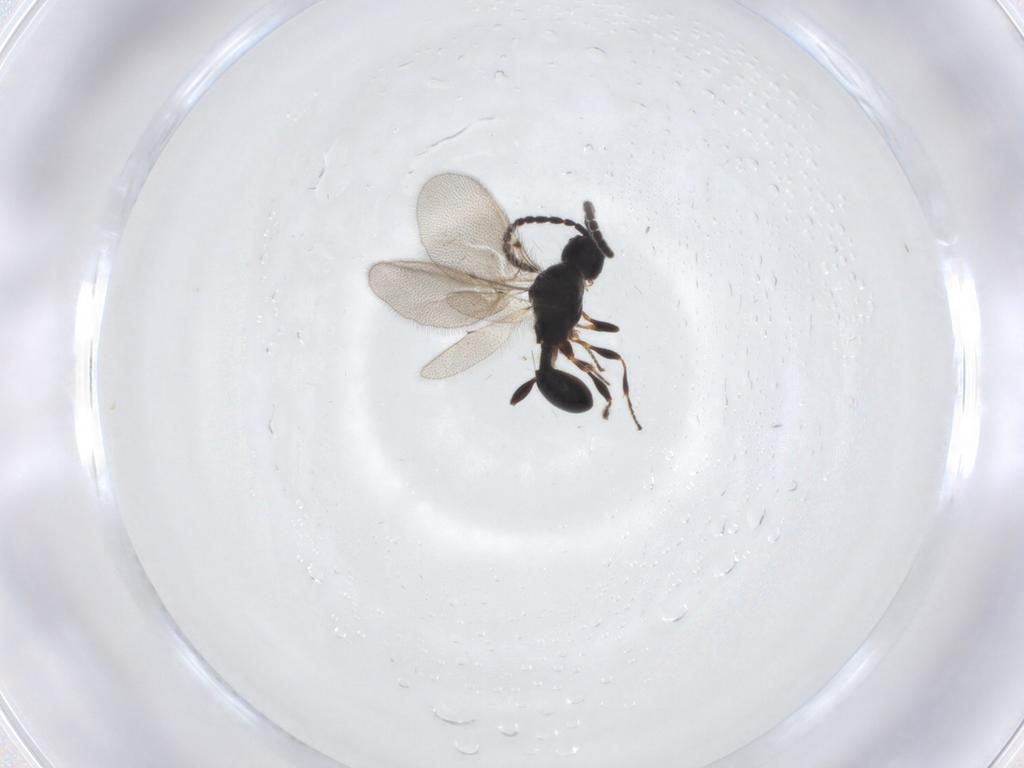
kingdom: Animalia
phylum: Arthropoda
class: Insecta
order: Hymenoptera
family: Diapriidae
